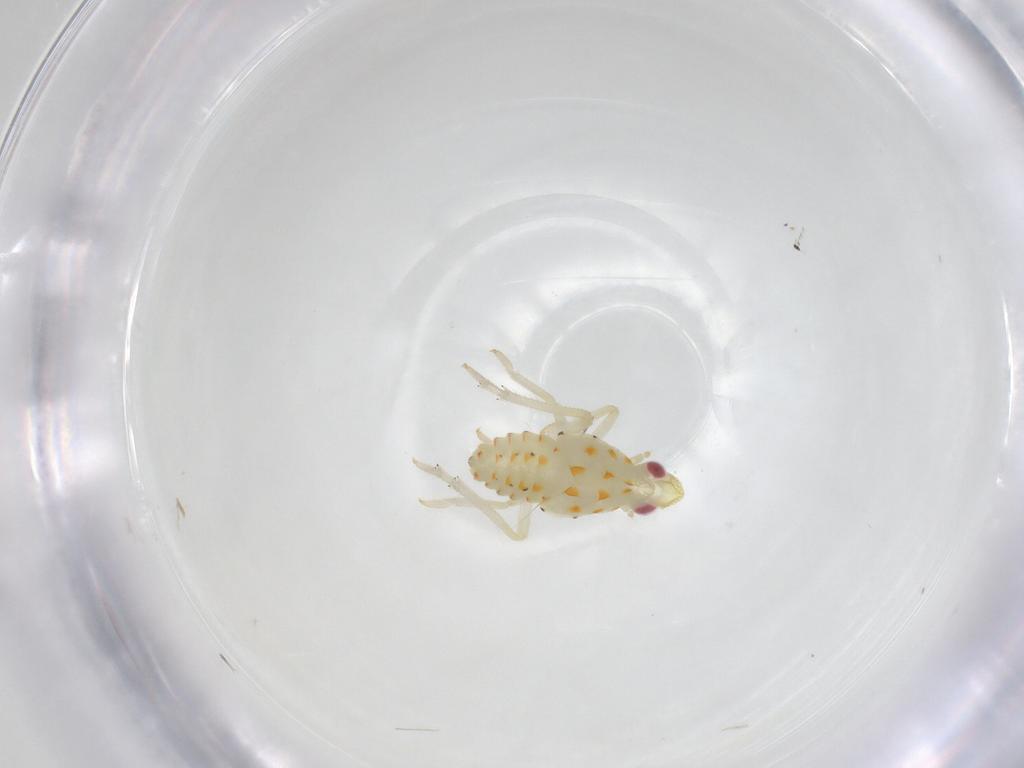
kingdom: Animalia
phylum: Arthropoda
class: Insecta
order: Hemiptera
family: Tropiduchidae
